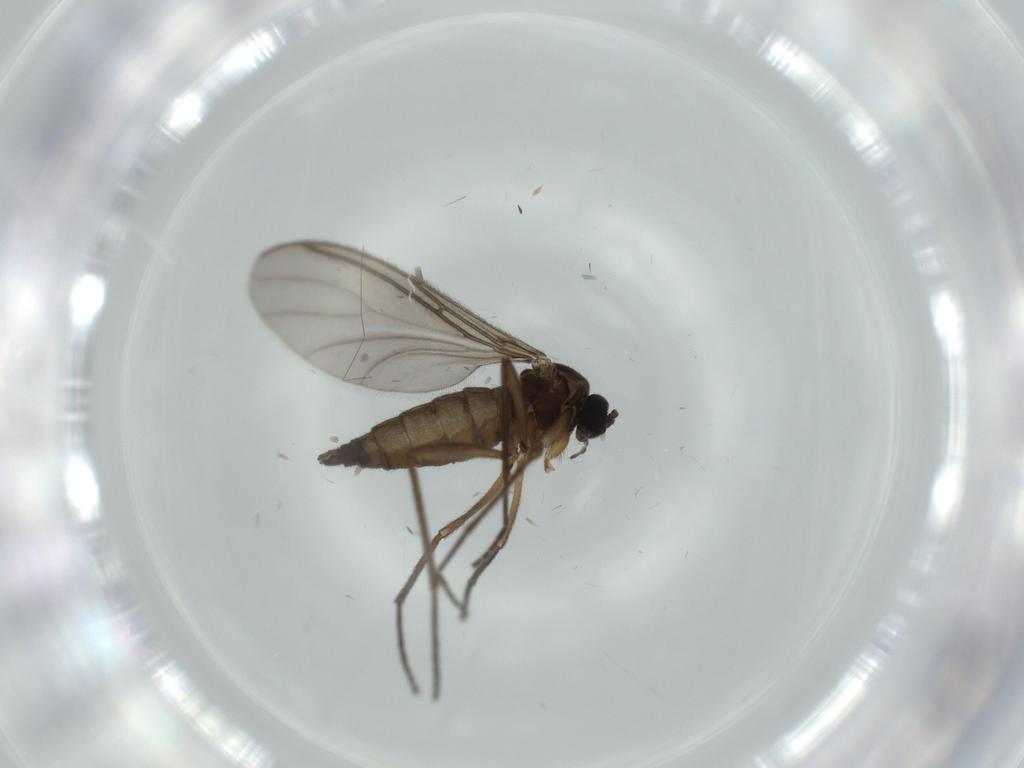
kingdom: Animalia
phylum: Arthropoda
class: Insecta
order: Diptera
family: Sciaridae
